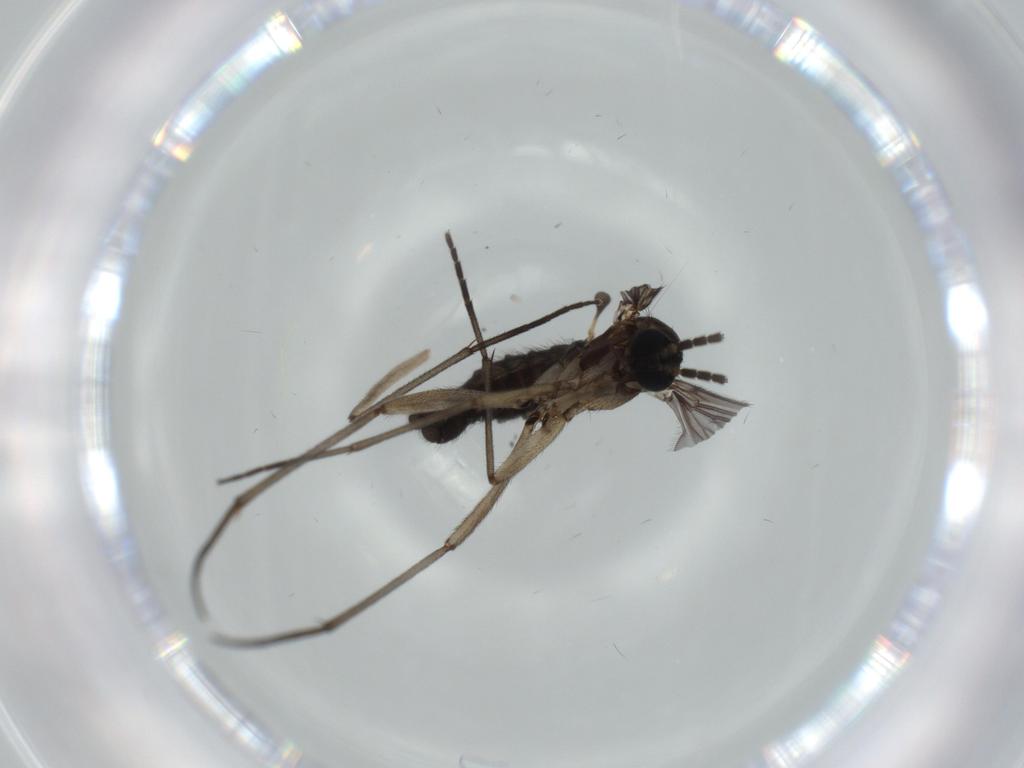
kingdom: Animalia
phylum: Arthropoda
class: Insecta
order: Diptera
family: Sciaridae
